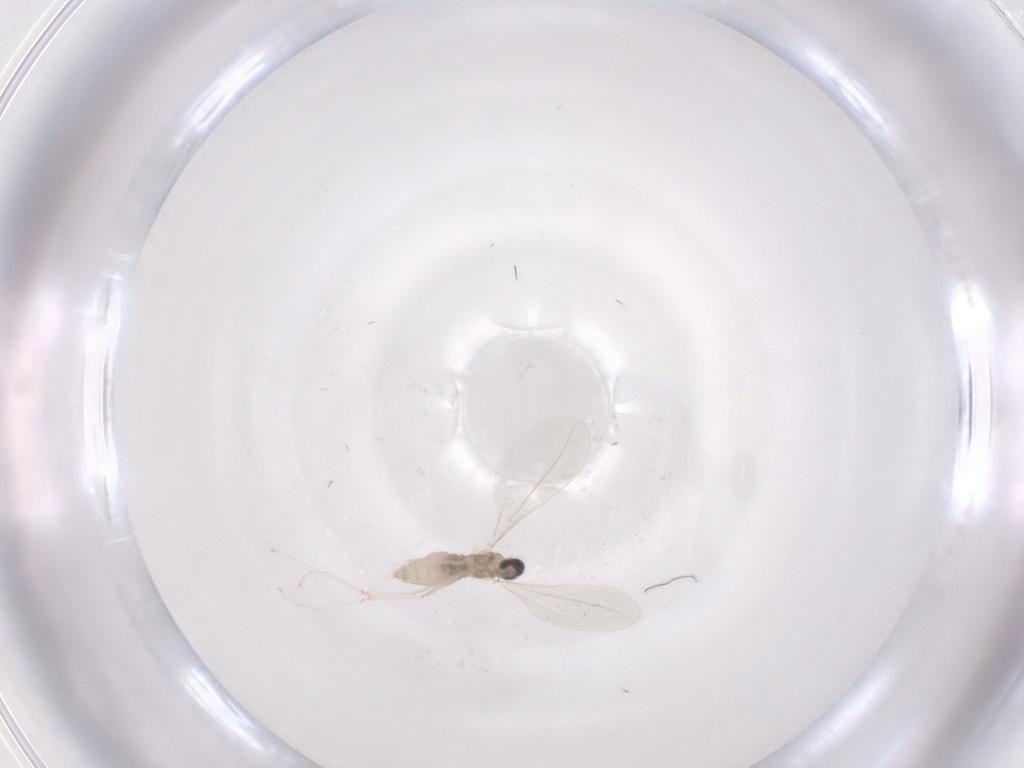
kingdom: Animalia
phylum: Arthropoda
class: Insecta
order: Diptera
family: Cecidomyiidae
